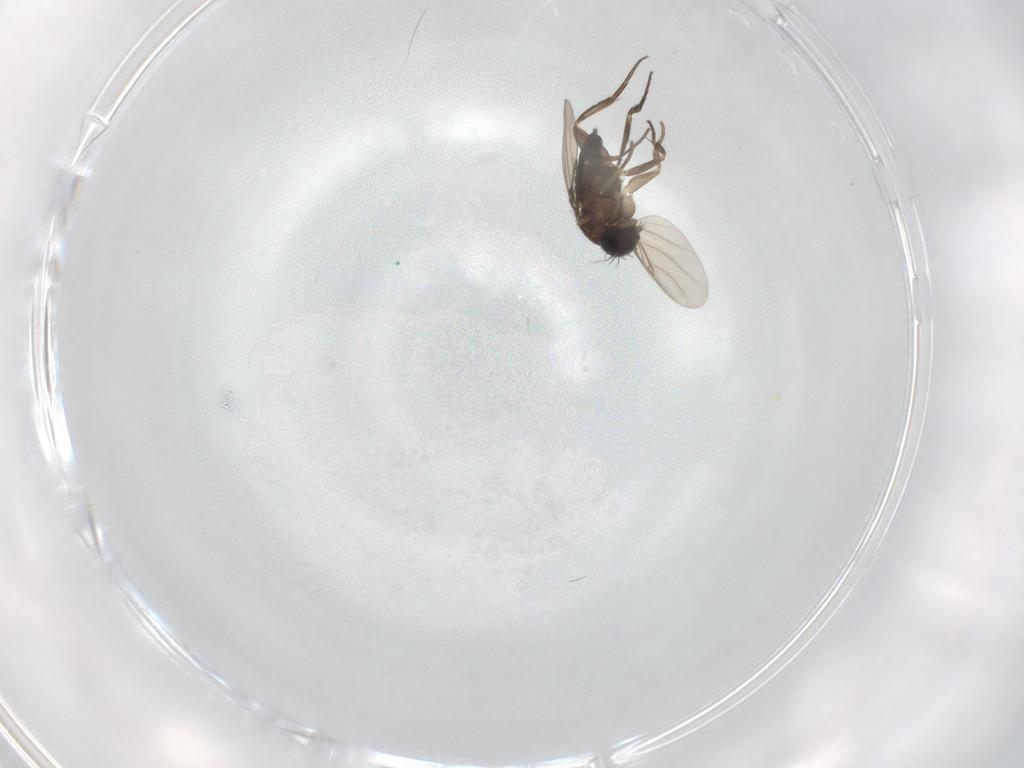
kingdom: Animalia
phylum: Arthropoda
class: Insecta
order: Diptera
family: Phoridae
